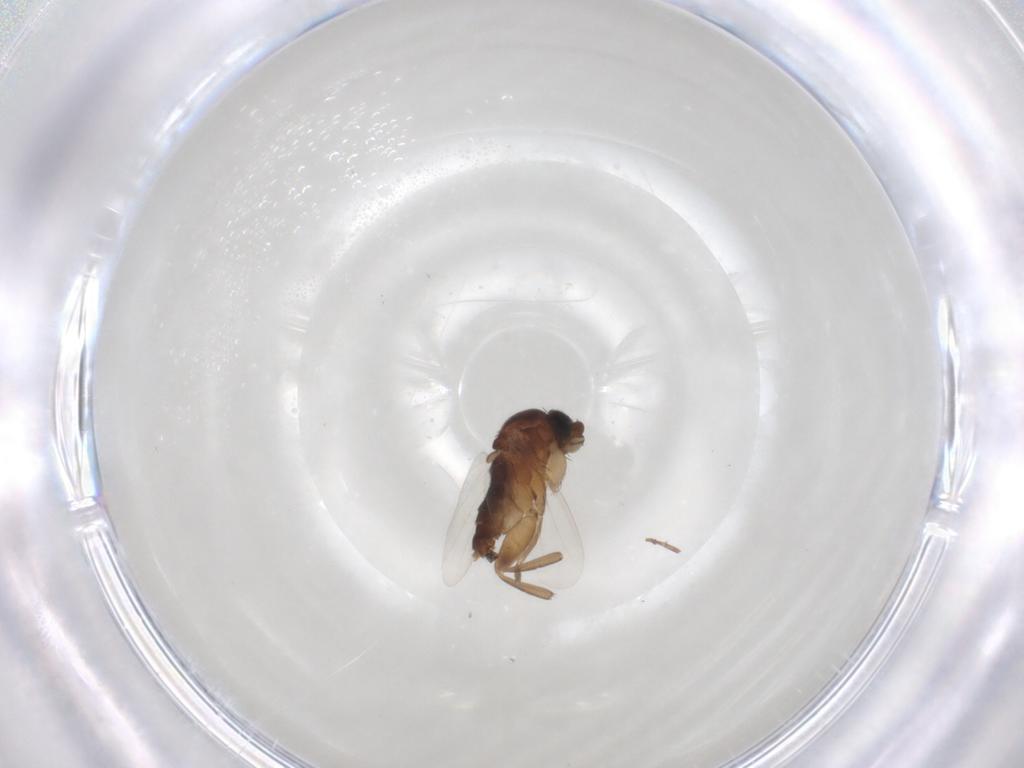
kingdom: Animalia
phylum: Arthropoda
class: Insecta
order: Diptera
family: Phoridae
